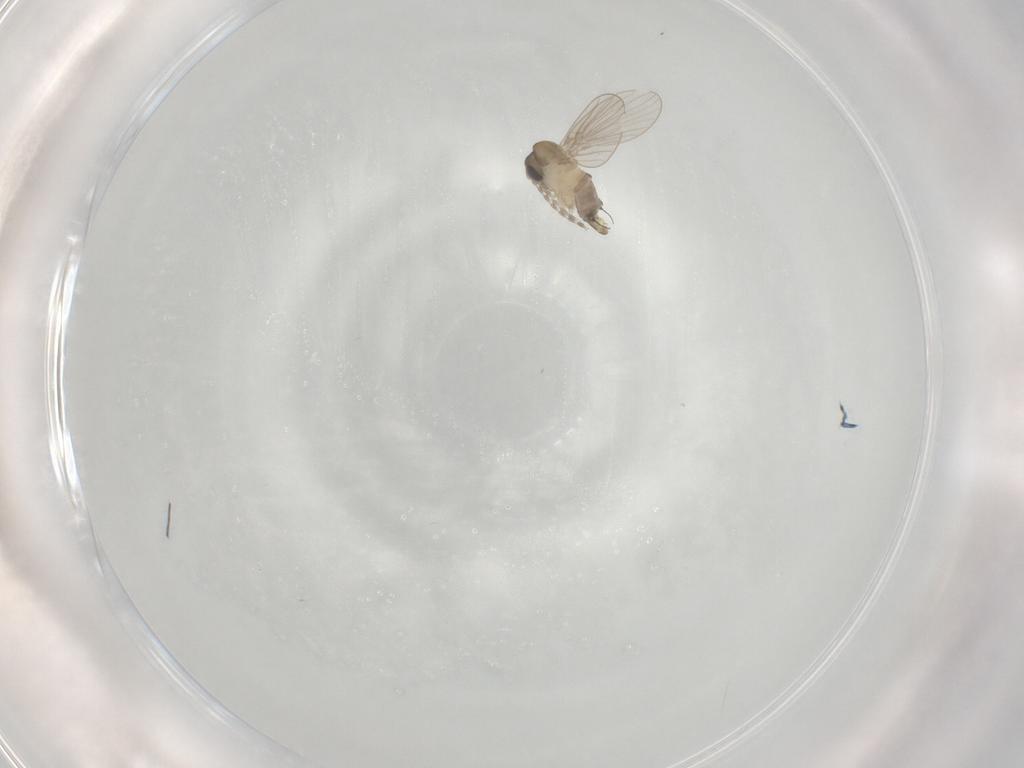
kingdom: Animalia
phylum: Arthropoda
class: Insecta
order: Diptera
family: Psychodidae
